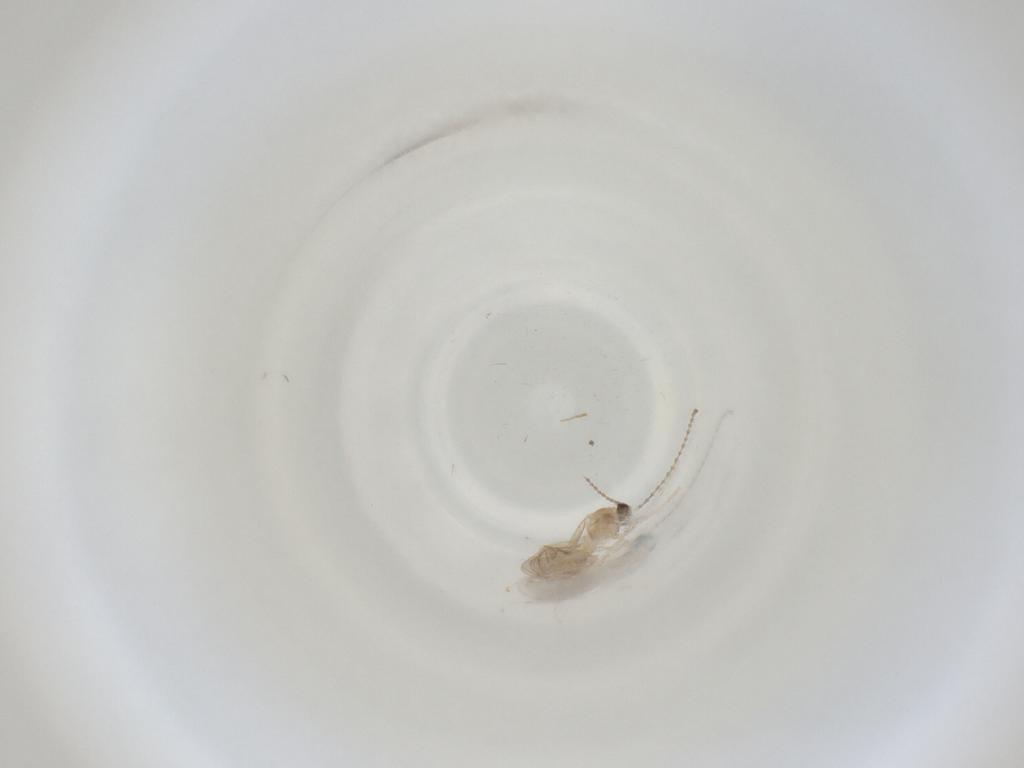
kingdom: Animalia
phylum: Arthropoda
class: Insecta
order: Diptera
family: Cecidomyiidae
